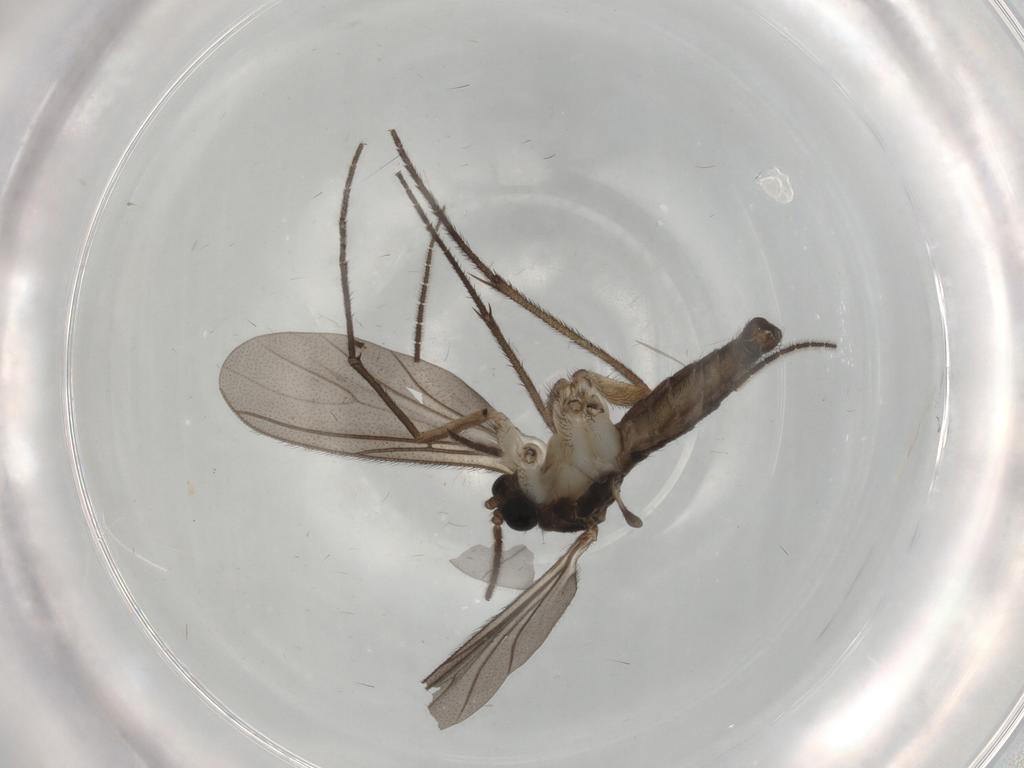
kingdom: Animalia
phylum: Arthropoda
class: Insecta
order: Diptera
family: Sciaridae
